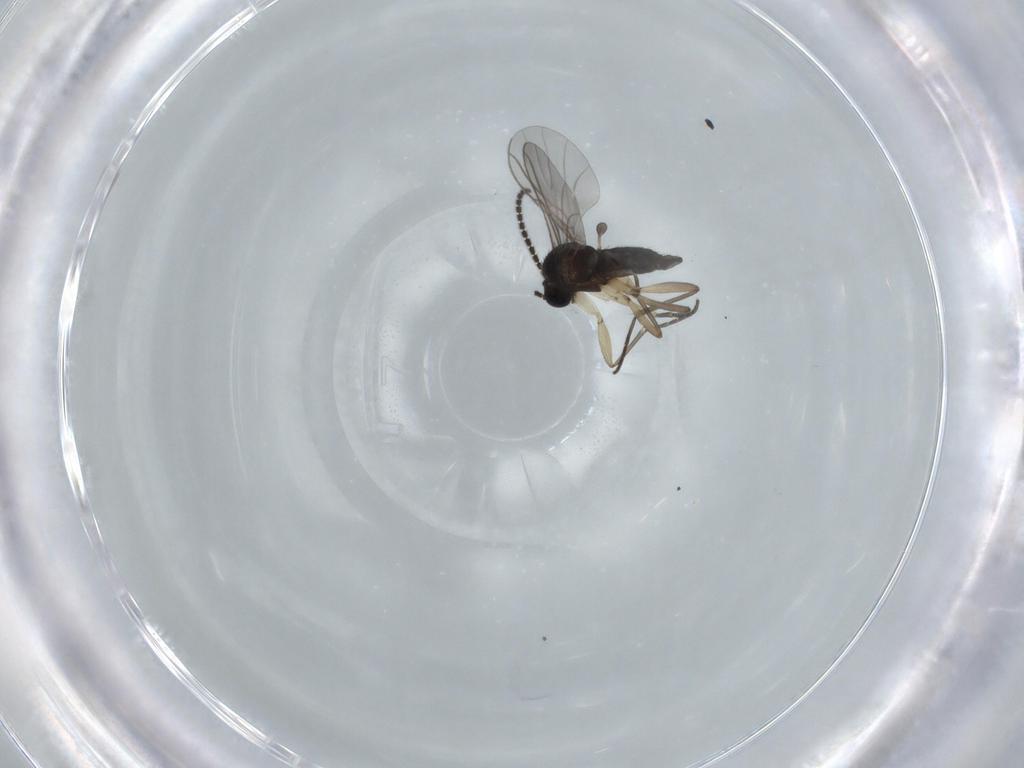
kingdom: Animalia
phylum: Arthropoda
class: Insecta
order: Diptera
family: Sciaridae
